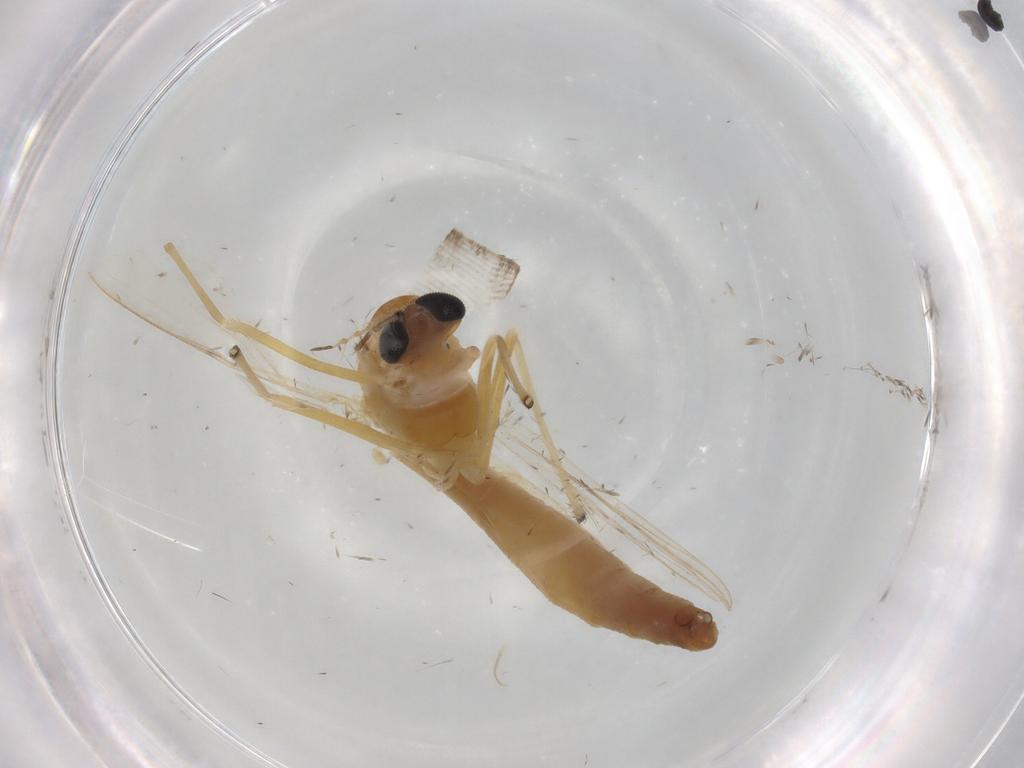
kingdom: Animalia
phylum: Arthropoda
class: Insecta
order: Diptera
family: Chironomidae
